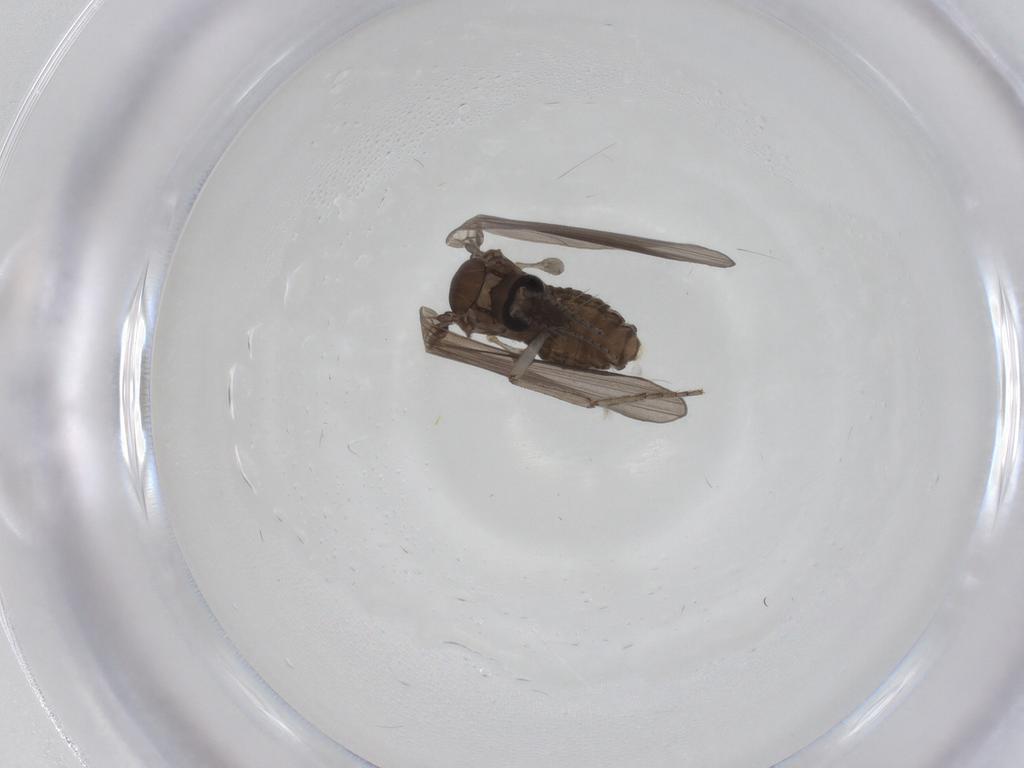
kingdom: Animalia
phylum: Arthropoda
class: Insecta
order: Diptera
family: Psychodidae
